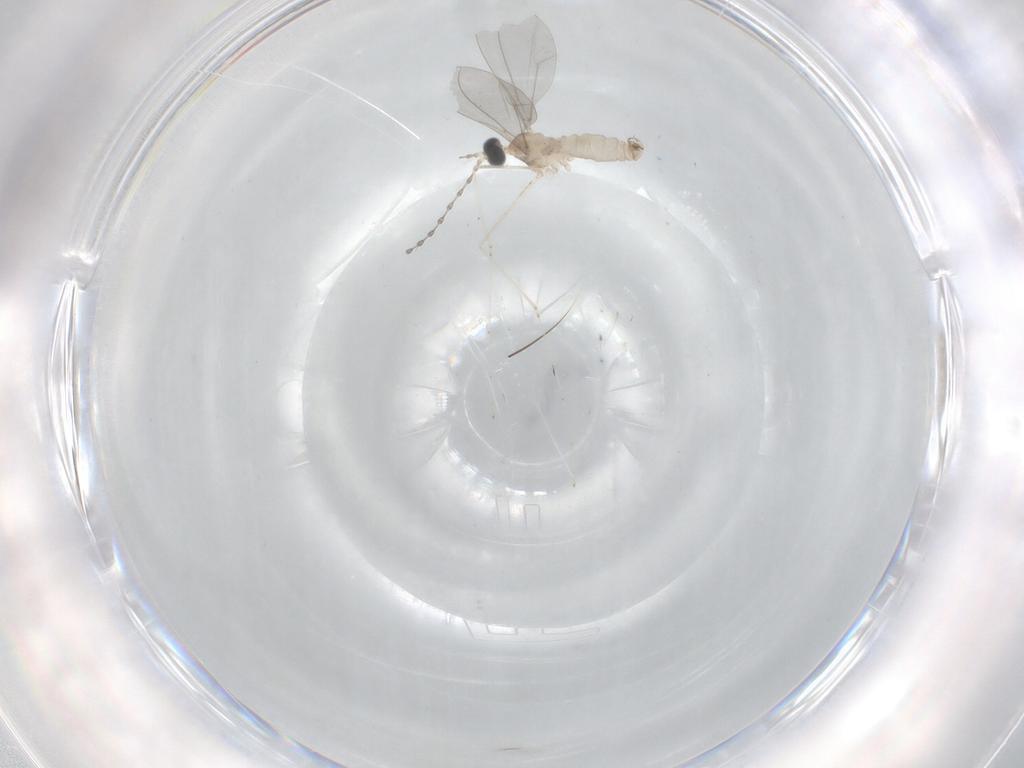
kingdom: Animalia
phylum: Arthropoda
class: Insecta
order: Diptera
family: Cecidomyiidae
